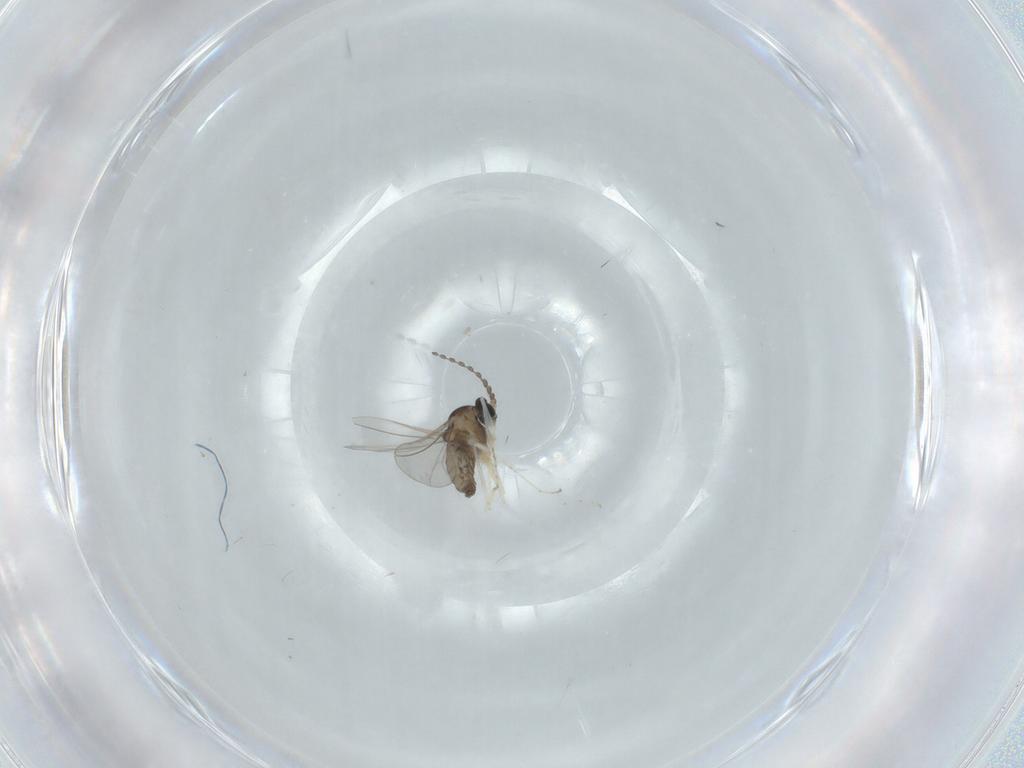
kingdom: Animalia
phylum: Arthropoda
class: Insecta
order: Diptera
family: Cecidomyiidae
